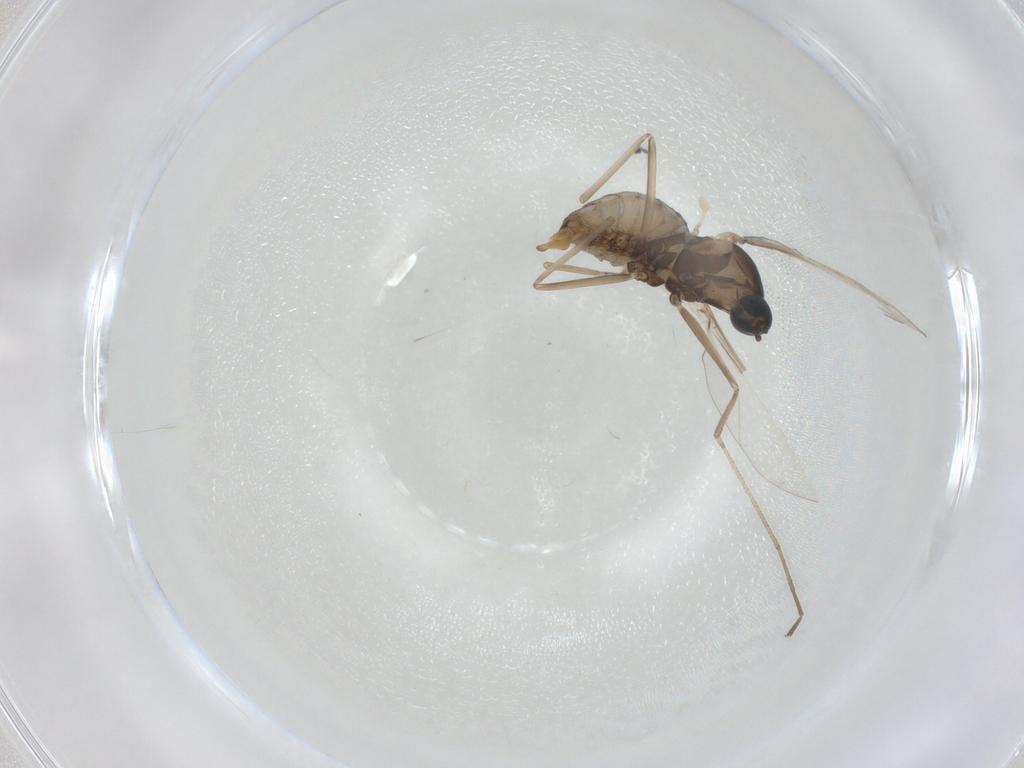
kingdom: Animalia
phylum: Arthropoda
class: Insecta
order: Diptera
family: Cecidomyiidae
